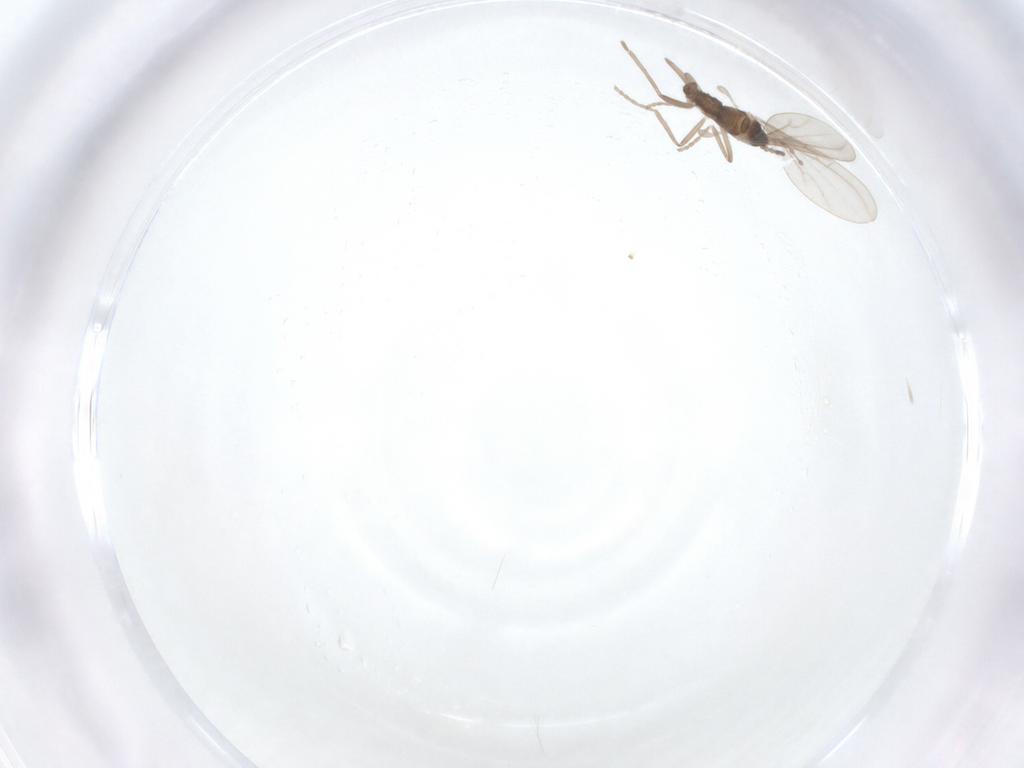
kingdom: Animalia
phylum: Arthropoda
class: Insecta
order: Diptera
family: Cecidomyiidae
